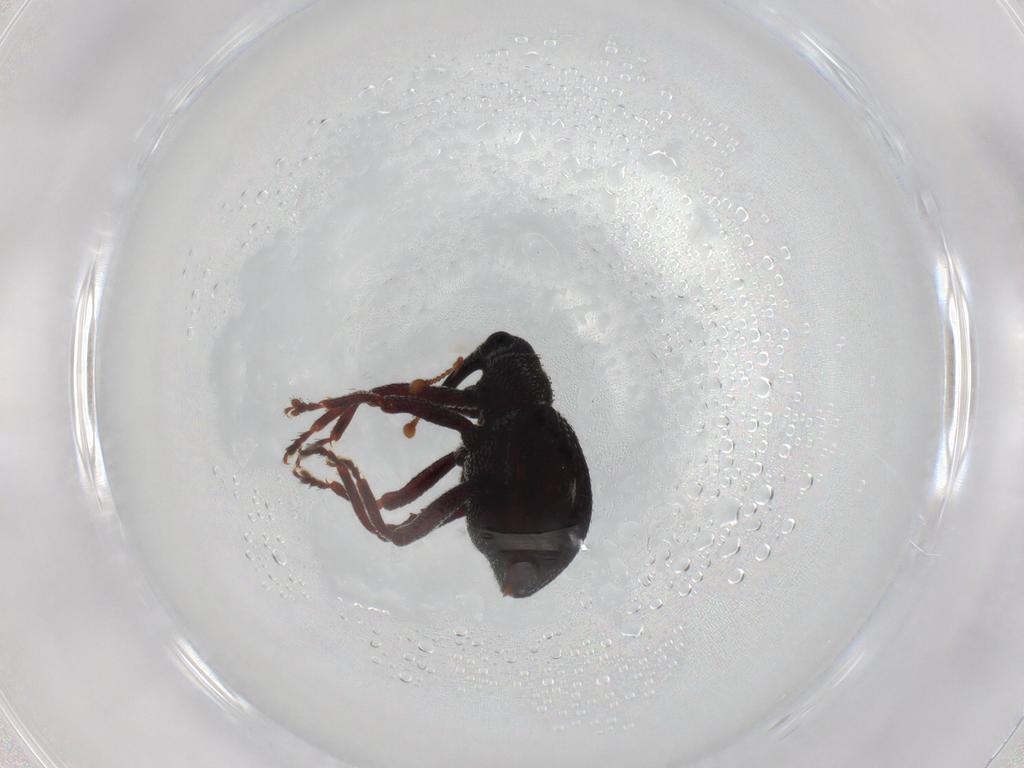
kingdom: Animalia
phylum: Arthropoda
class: Insecta
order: Coleoptera
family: Curculionidae
